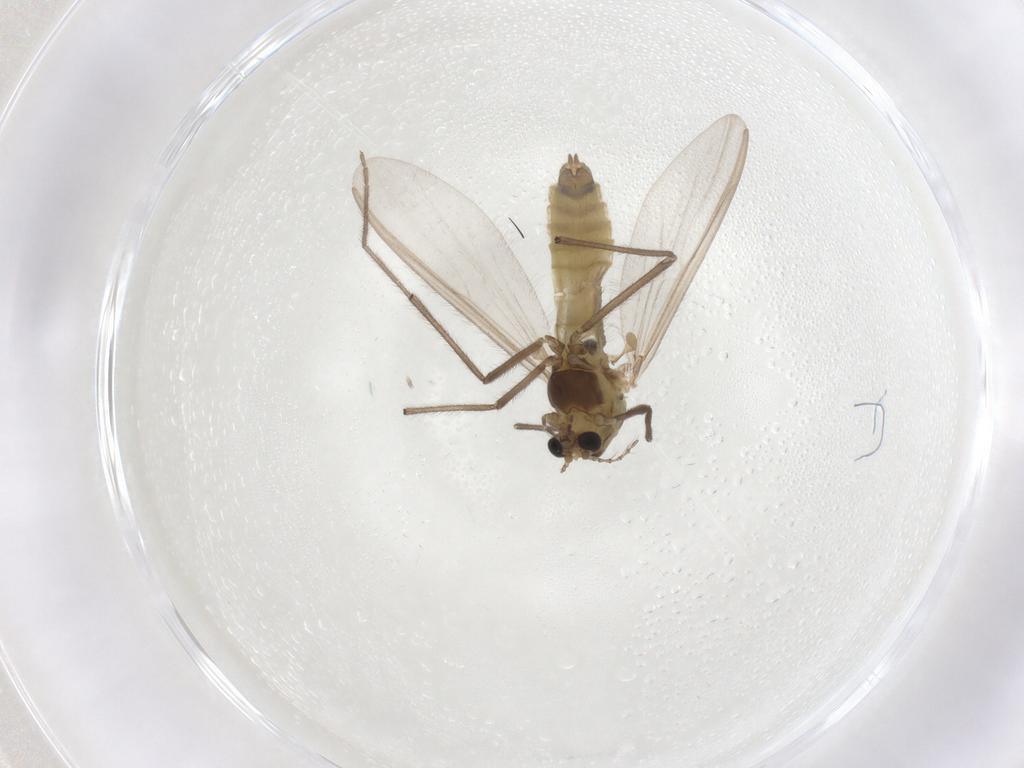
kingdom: Animalia
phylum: Arthropoda
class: Insecta
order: Diptera
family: Chironomidae
